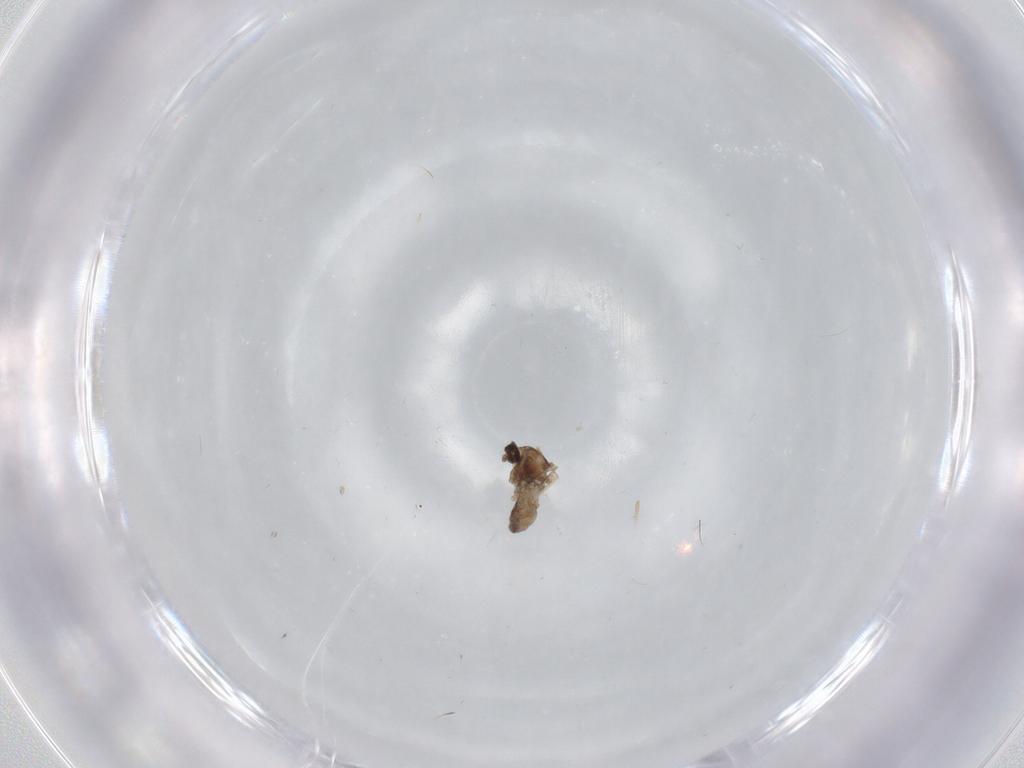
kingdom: Animalia
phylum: Arthropoda
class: Insecta
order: Diptera
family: Cecidomyiidae
